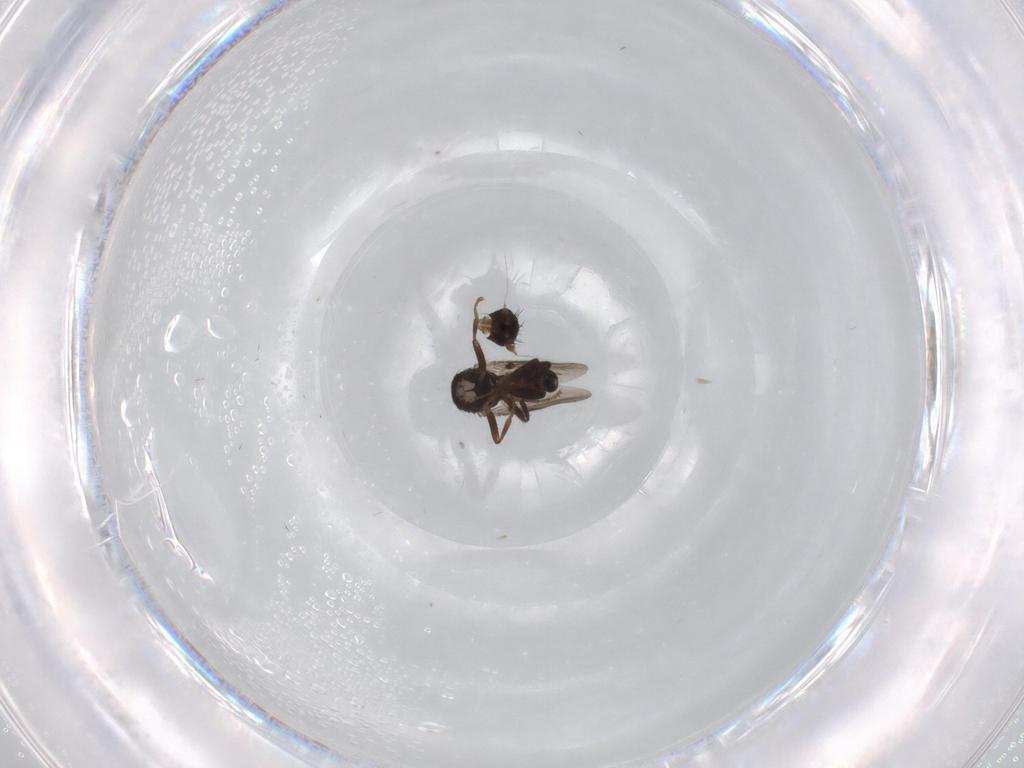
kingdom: Animalia
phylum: Arthropoda
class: Insecta
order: Diptera
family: Sphaeroceridae
